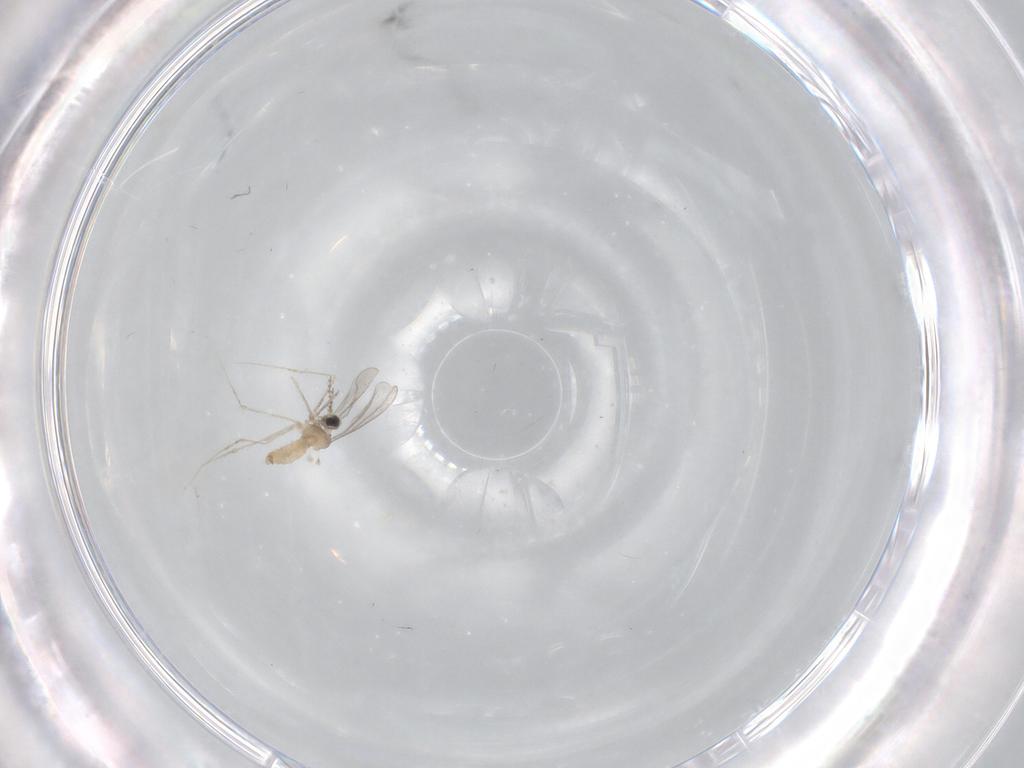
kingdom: Animalia
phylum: Arthropoda
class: Insecta
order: Diptera
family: Cecidomyiidae
